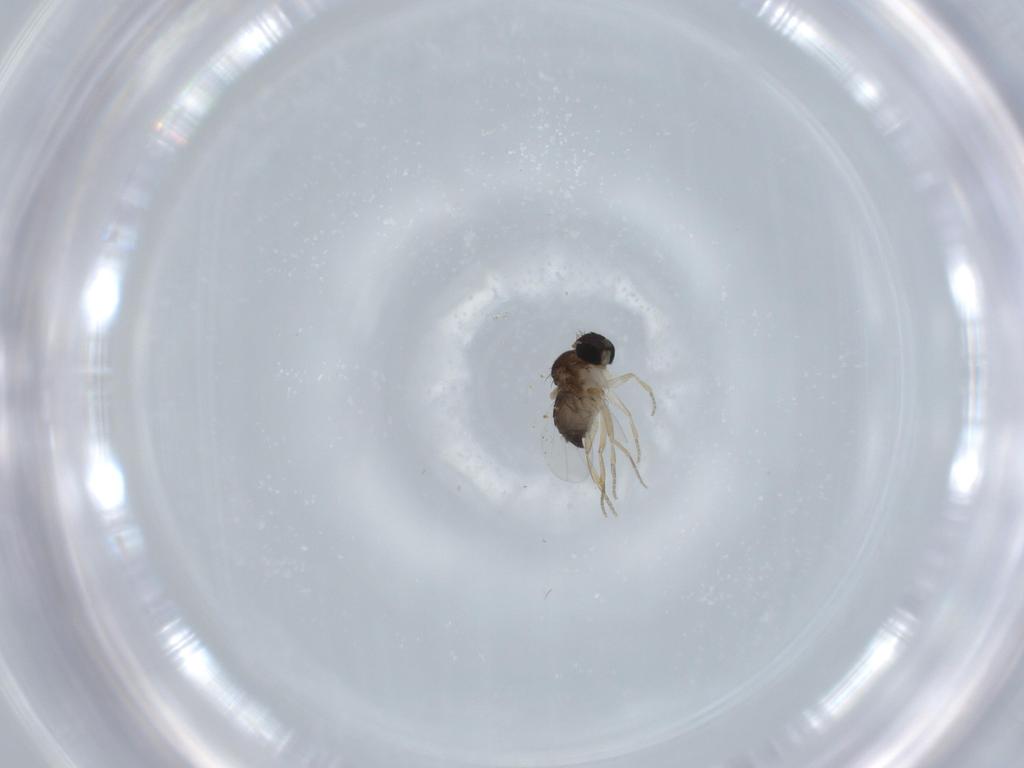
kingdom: Animalia
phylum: Arthropoda
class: Insecta
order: Diptera
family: Phoridae
